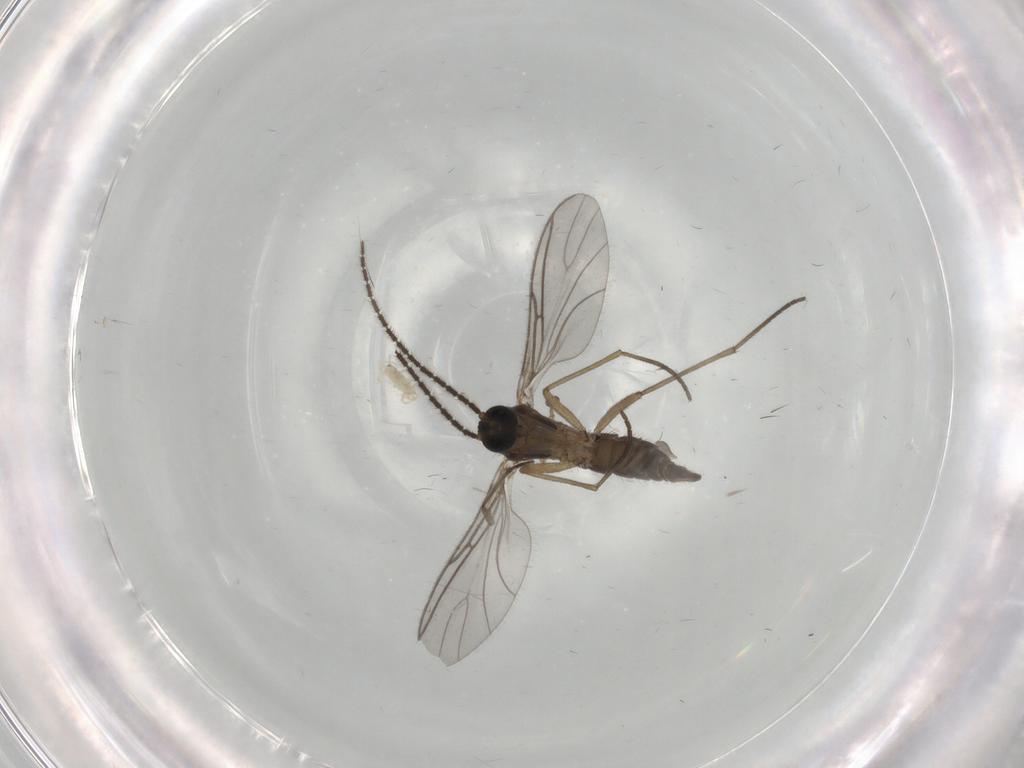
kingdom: Animalia
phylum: Arthropoda
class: Insecta
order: Diptera
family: Tipulidae
